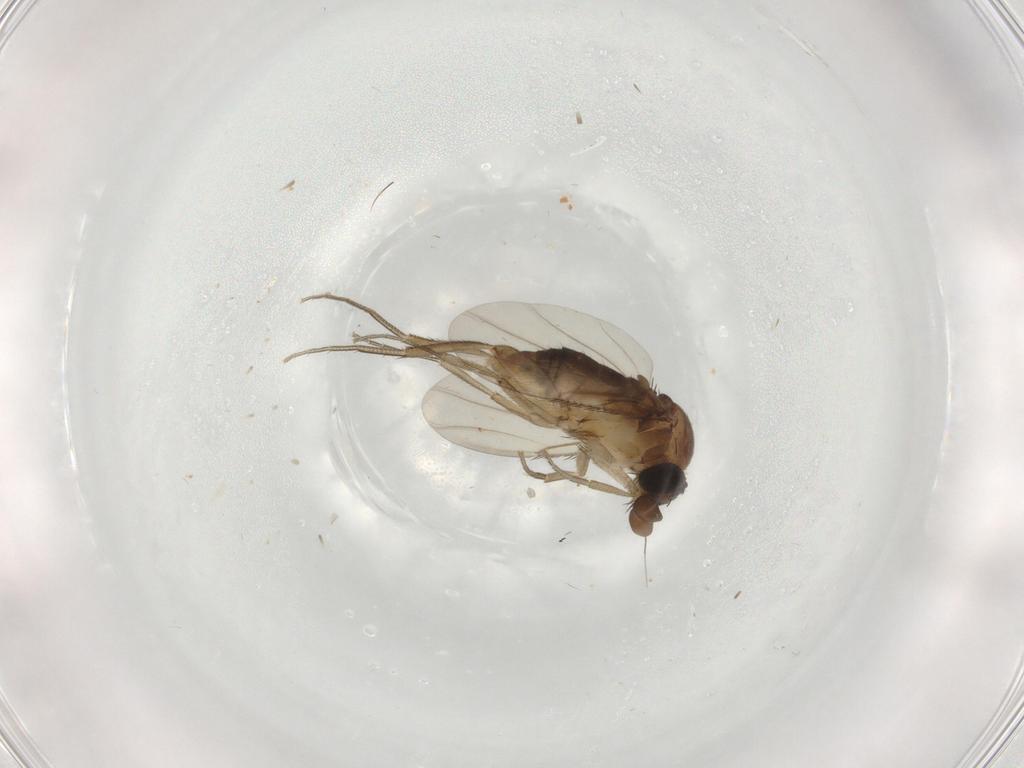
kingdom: Animalia
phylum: Arthropoda
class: Insecta
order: Diptera
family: Phoridae
